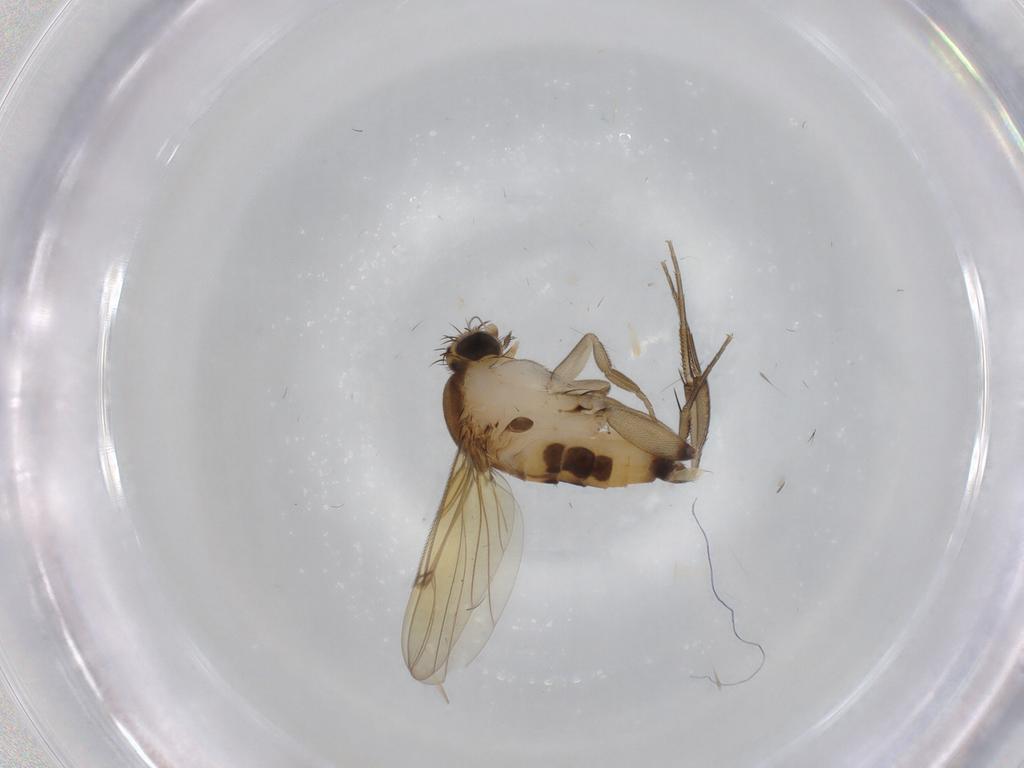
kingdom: Animalia
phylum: Arthropoda
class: Insecta
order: Diptera
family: Phoridae
